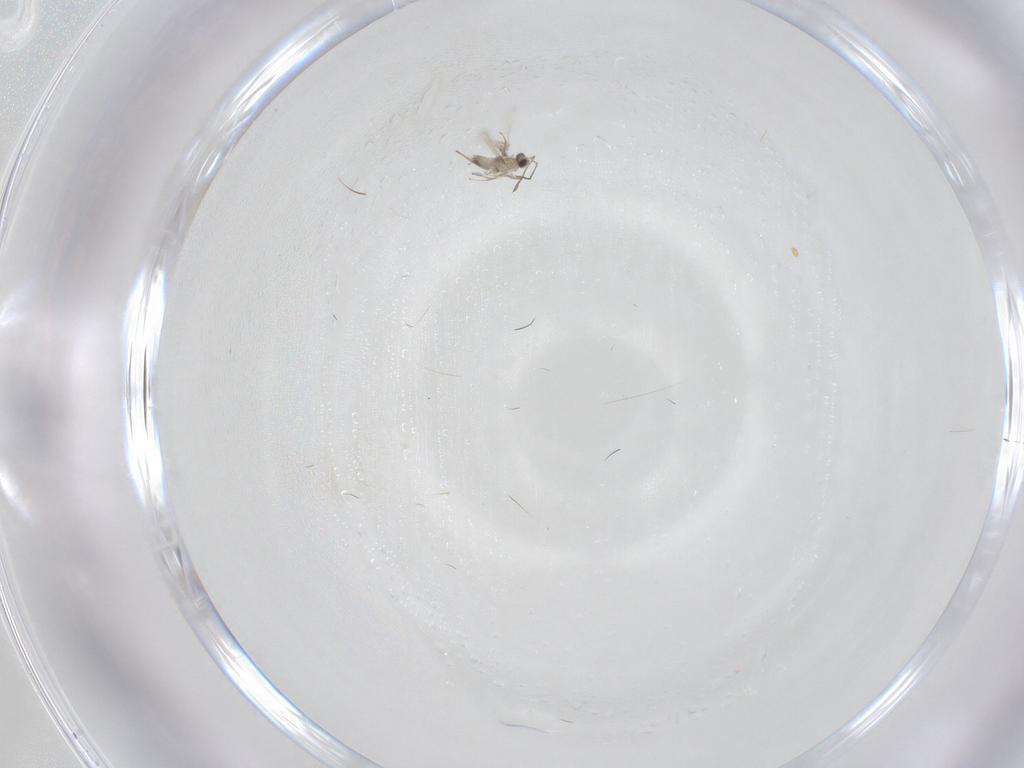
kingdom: Animalia
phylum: Arthropoda
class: Insecta
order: Hymenoptera
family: Mymaridae
